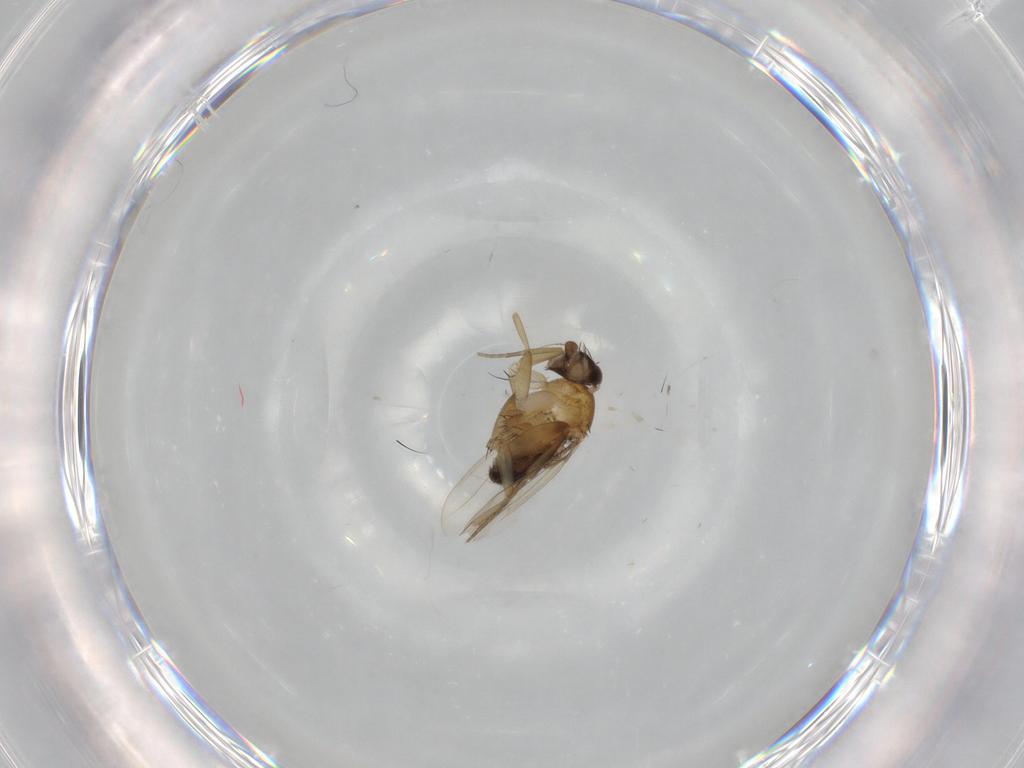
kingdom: Animalia
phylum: Arthropoda
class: Insecta
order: Diptera
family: Phoridae
